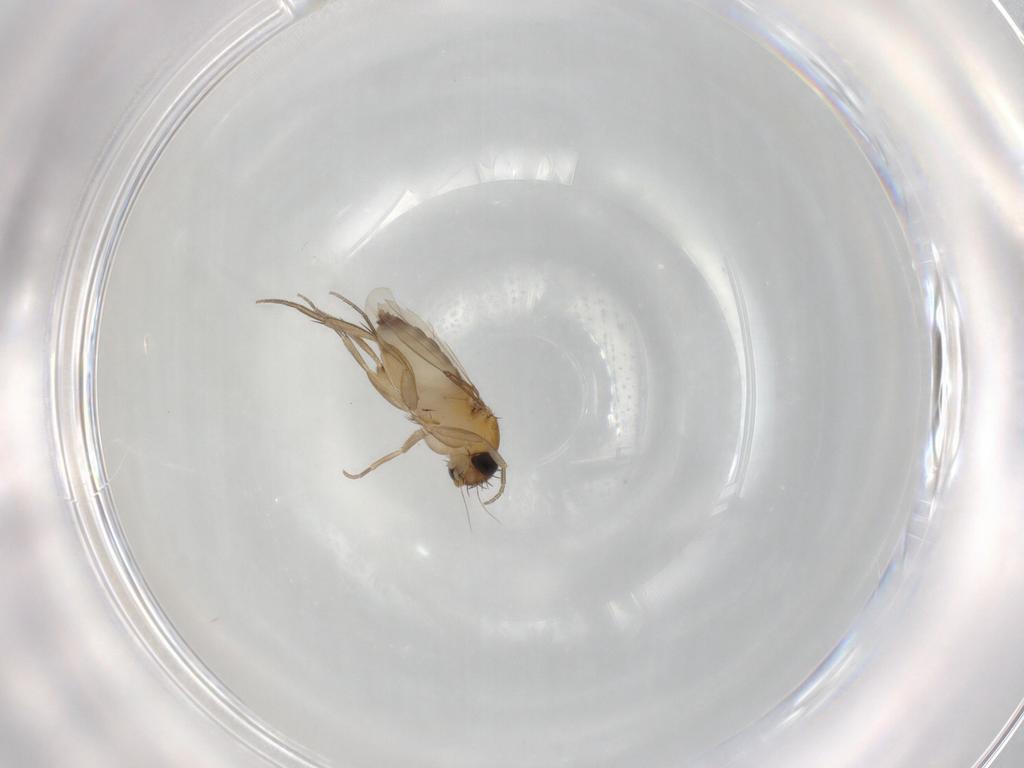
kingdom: Animalia
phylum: Arthropoda
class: Insecta
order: Diptera
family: Phoridae
